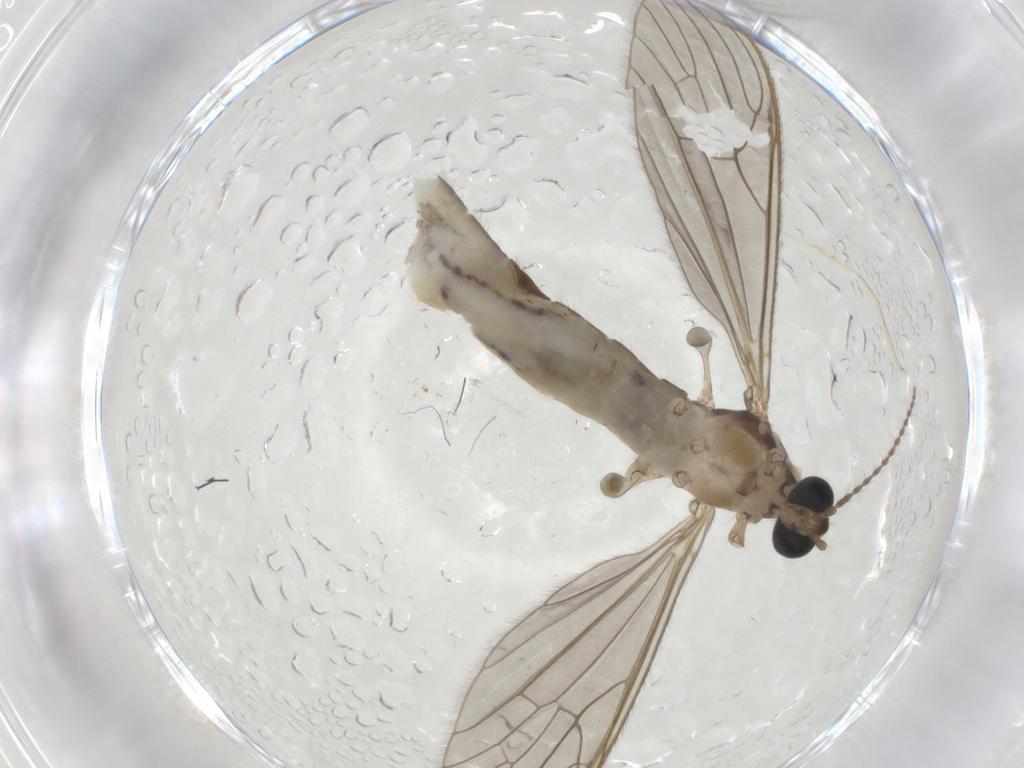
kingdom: Animalia
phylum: Arthropoda
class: Insecta
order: Diptera
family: Limoniidae
